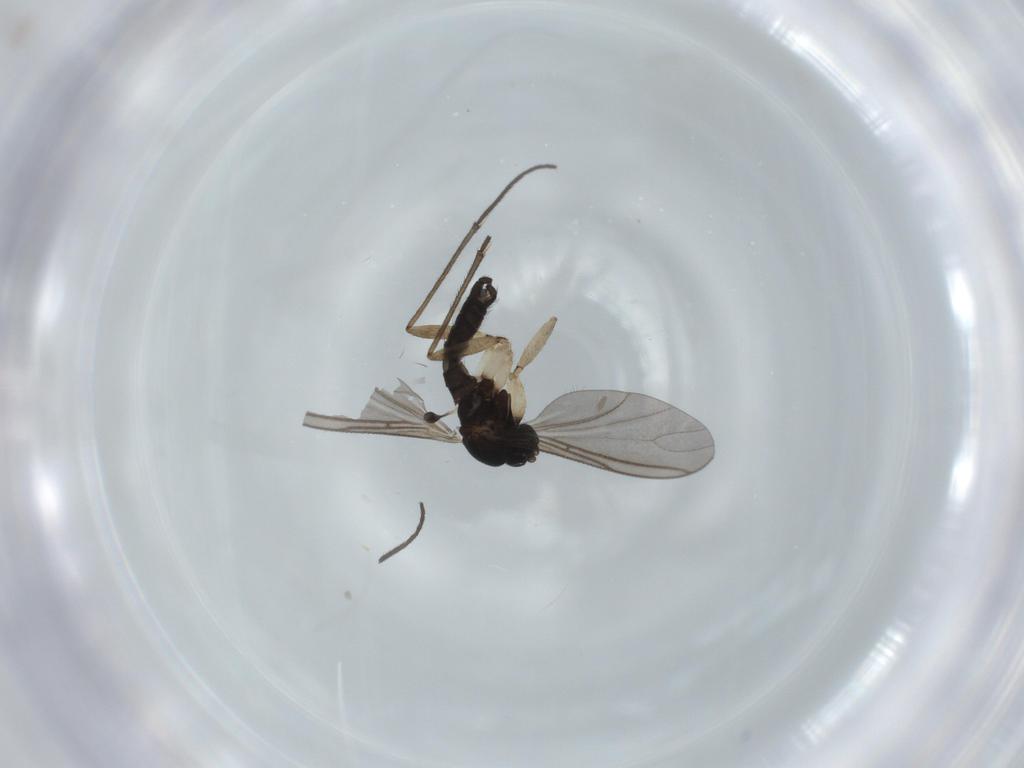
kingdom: Animalia
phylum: Arthropoda
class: Insecta
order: Diptera
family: Sciaridae
